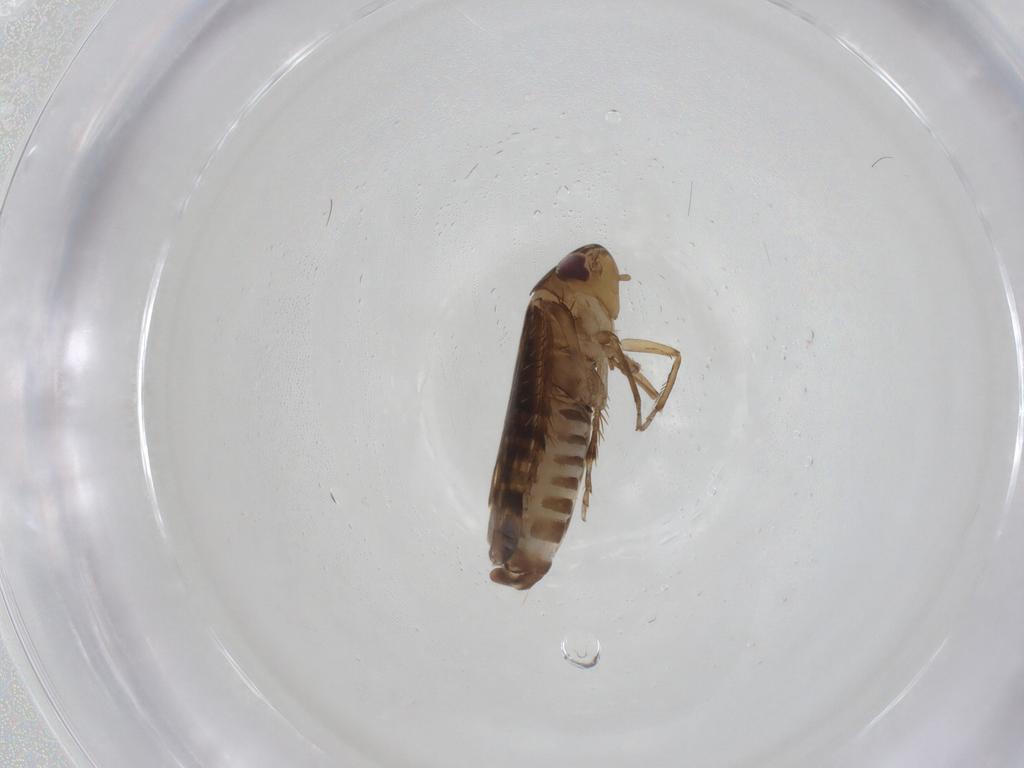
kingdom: Animalia
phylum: Arthropoda
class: Insecta
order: Hemiptera
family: Cicadellidae
